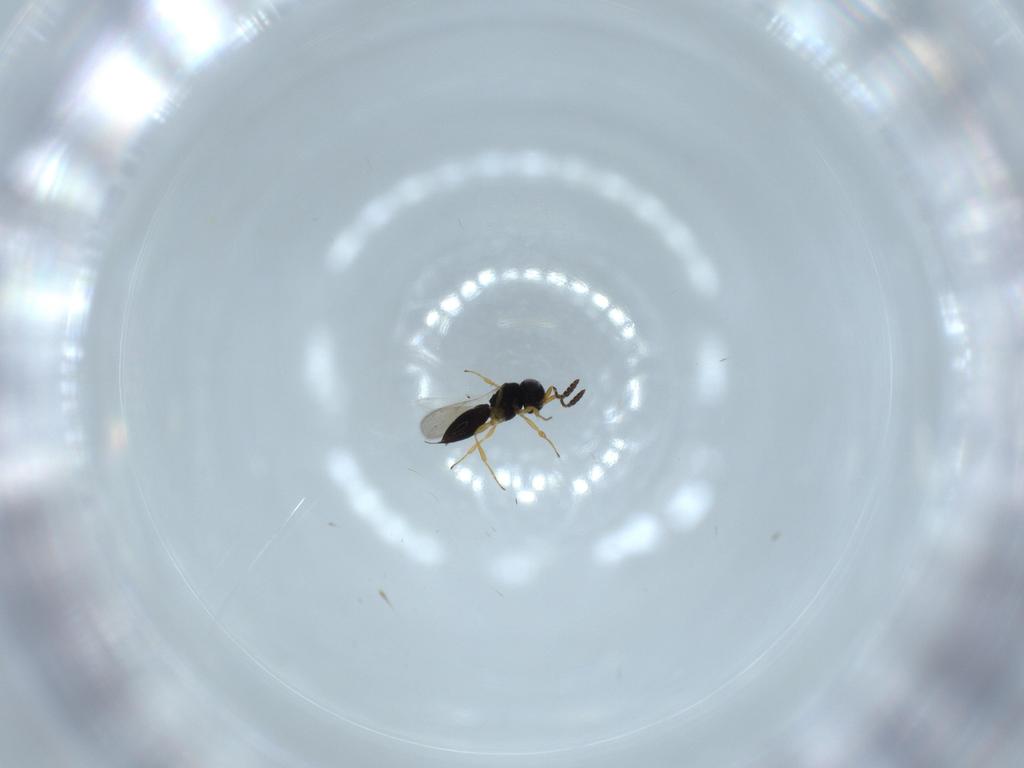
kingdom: Animalia
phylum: Arthropoda
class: Insecta
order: Hymenoptera
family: Scelionidae
